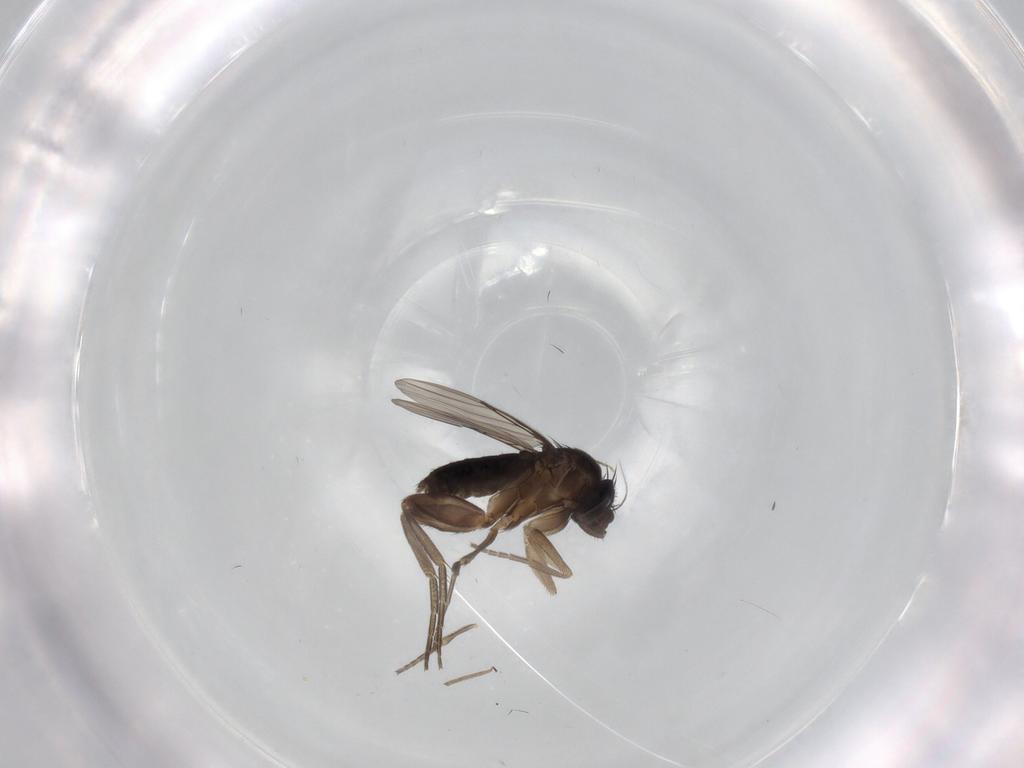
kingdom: Animalia
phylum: Arthropoda
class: Insecta
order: Diptera
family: Phoridae
